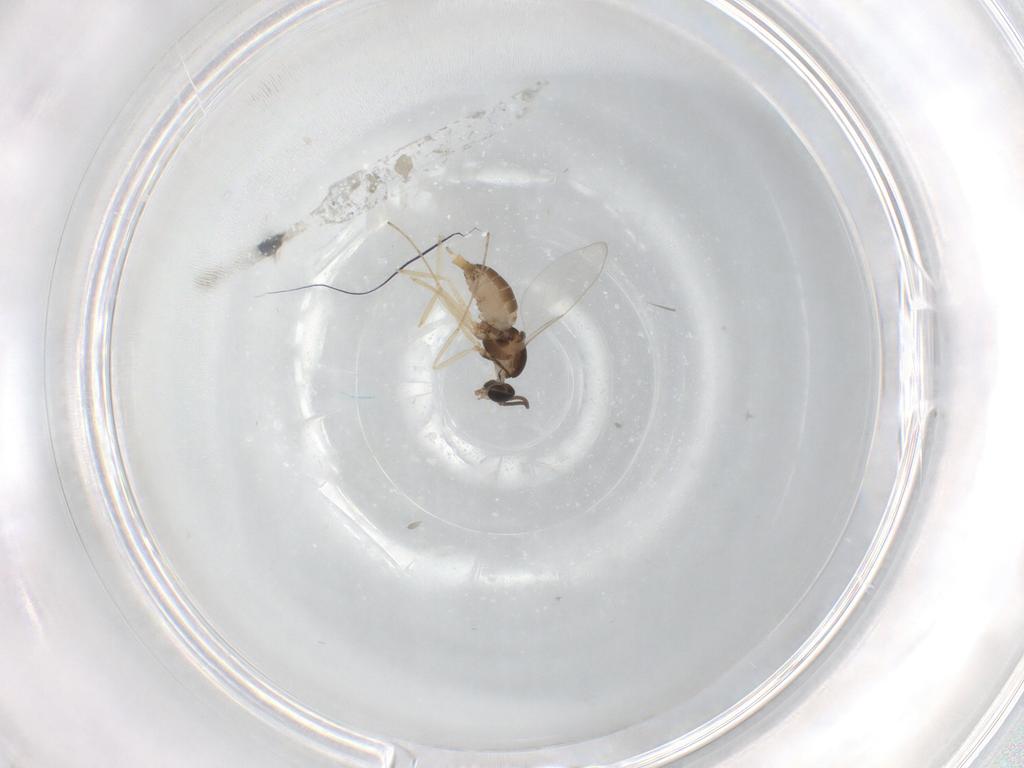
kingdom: Animalia
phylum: Arthropoda
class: Insecta
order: Diptera
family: Cecidomyiidae
